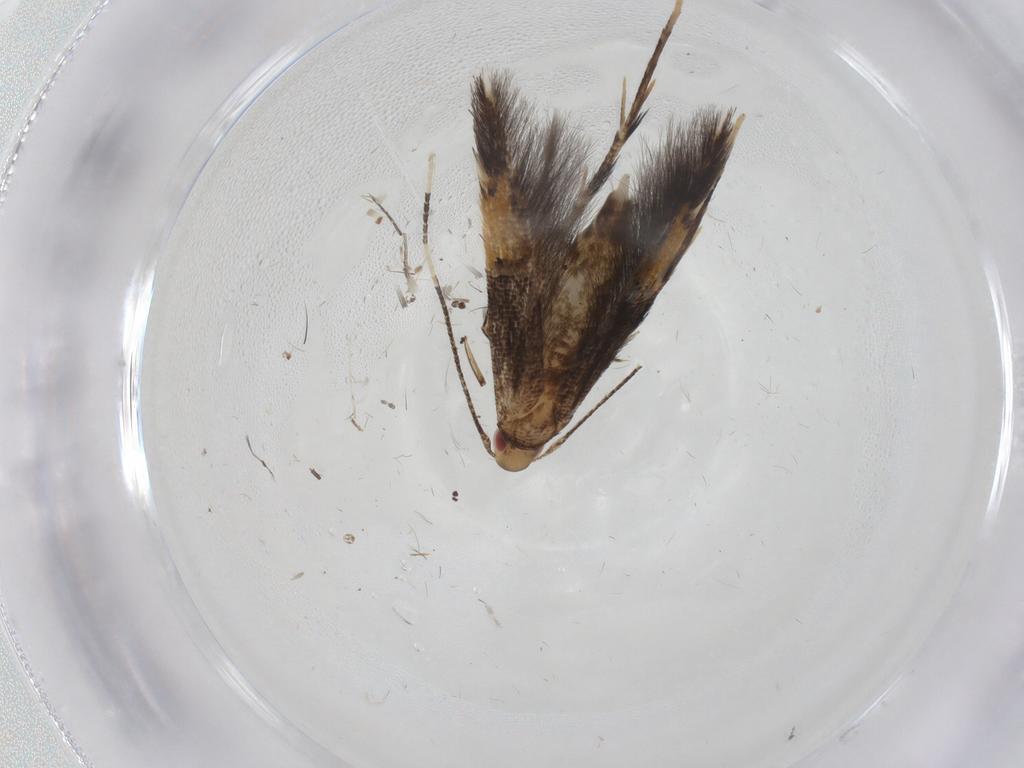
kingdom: Animalia
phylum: Arthropoda
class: Insecta
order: Lepidoptera
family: Cosmopterigidae
